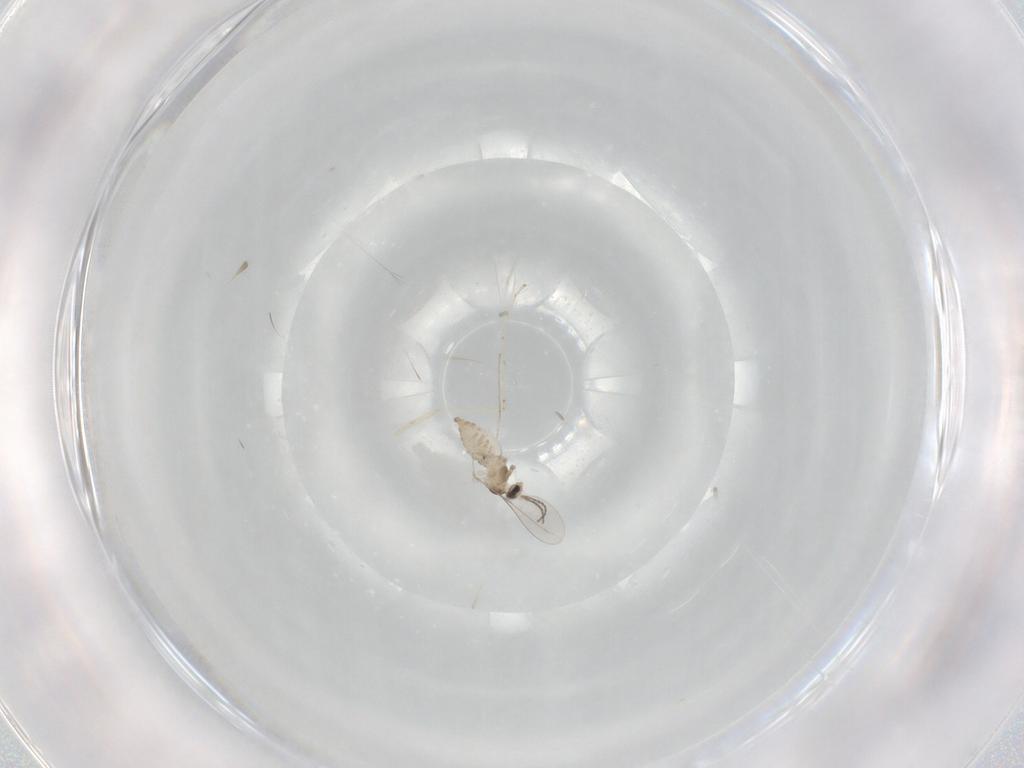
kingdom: Animalia
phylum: Arthropoda
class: Insecta
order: Diptera
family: Cecidomyiidae
